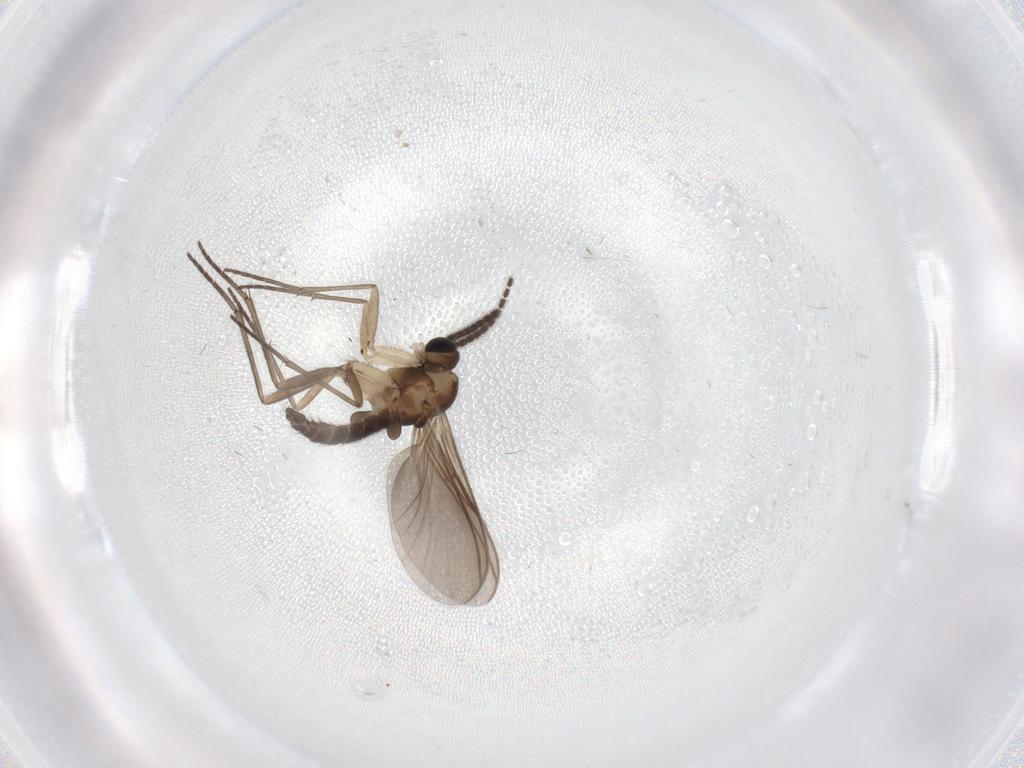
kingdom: Animalia
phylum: Arthropoda
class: Insecta
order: Diptera
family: Sciaridae
